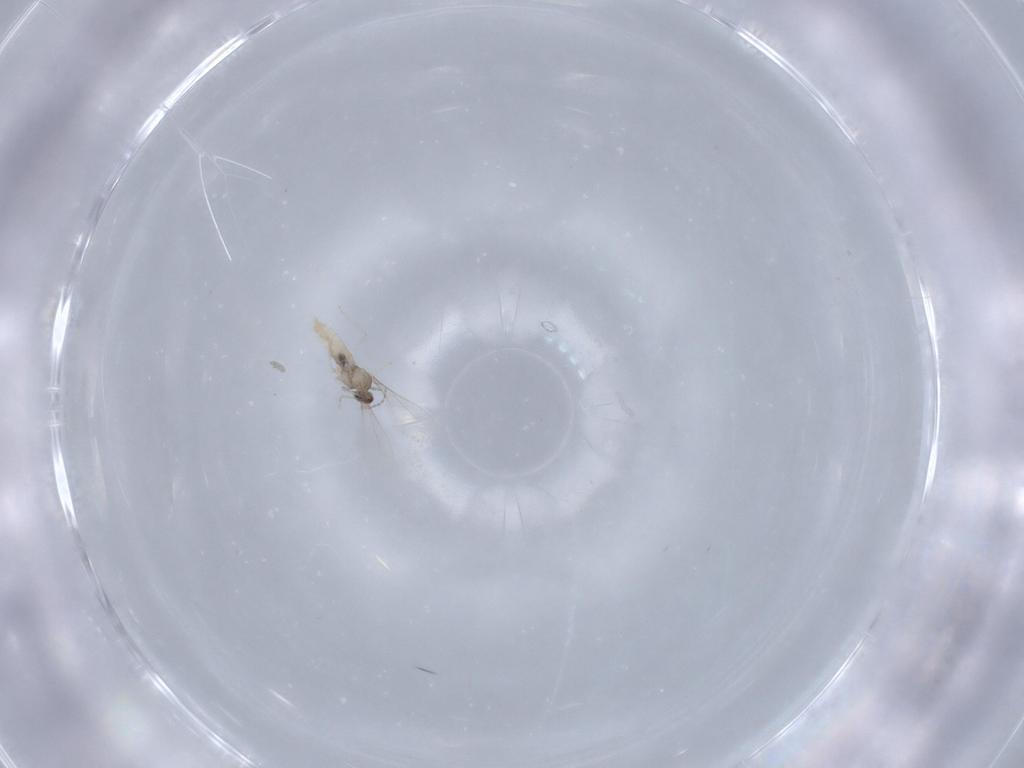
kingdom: Animalia
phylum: Arthropoda
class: Insecta
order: Diptera
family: Cecidomyiidae
